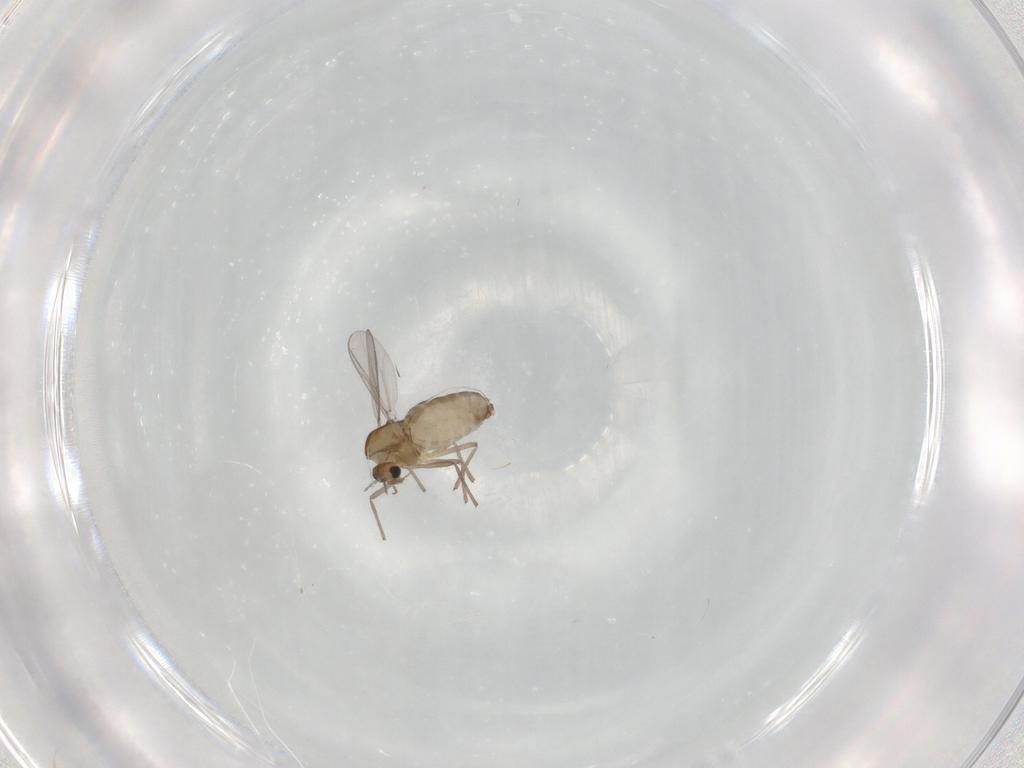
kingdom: Animalia
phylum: Arthropoda
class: Insecta
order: Diptera
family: Chironomidae
